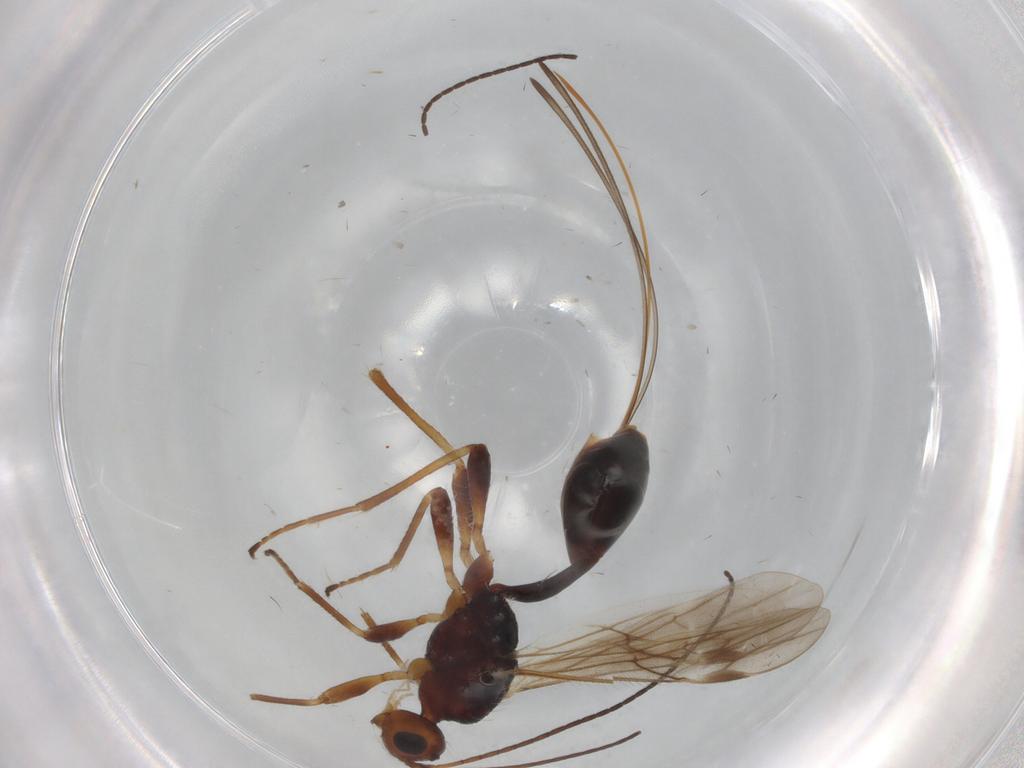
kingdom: Animalia
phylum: Arthropoda
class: Insecta
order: Hymenoptera
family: Braconidae
